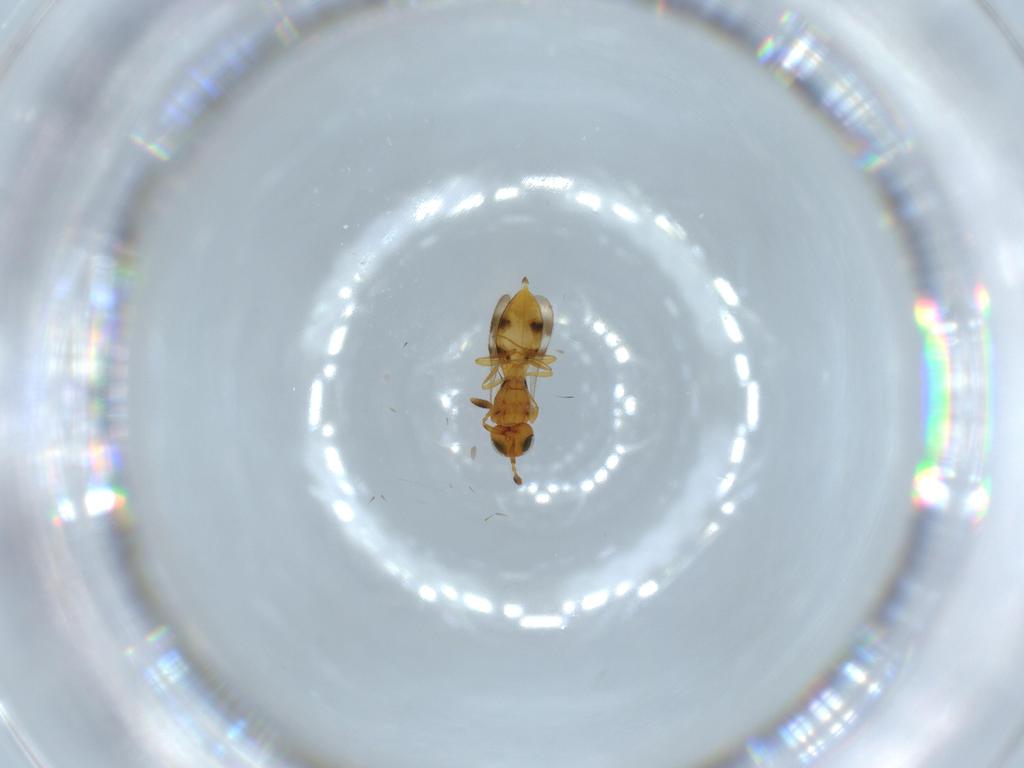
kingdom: Animalia
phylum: Arthropoda
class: Insecta
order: Hymenoptera
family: Scelionidae
